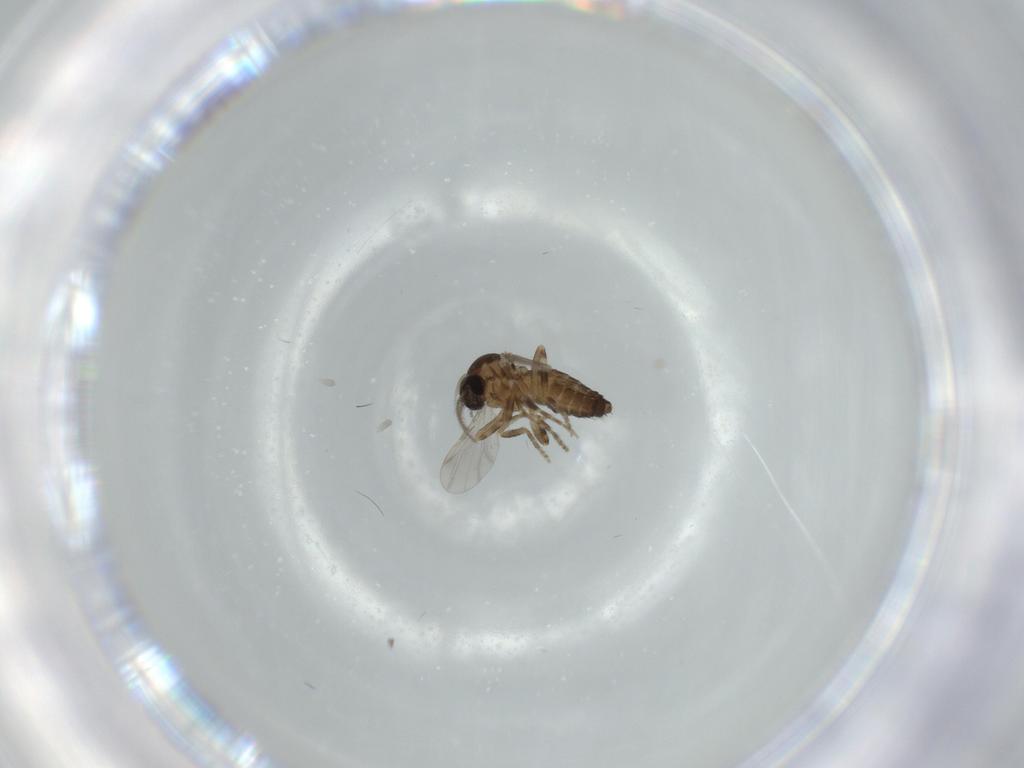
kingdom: Animalia
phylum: Arthropoda
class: Insecta
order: Diptera
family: Ceratopogonidae
